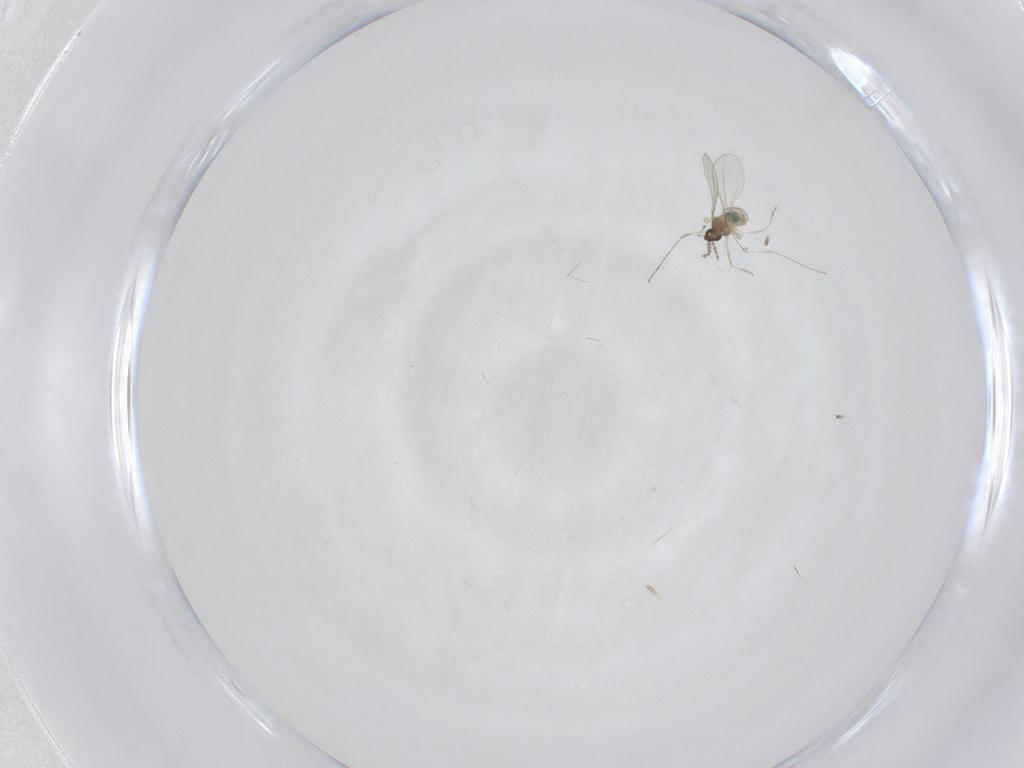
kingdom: Animalia
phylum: Arthropoda
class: Insecta
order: Diptera
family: Cecidomyiidae
